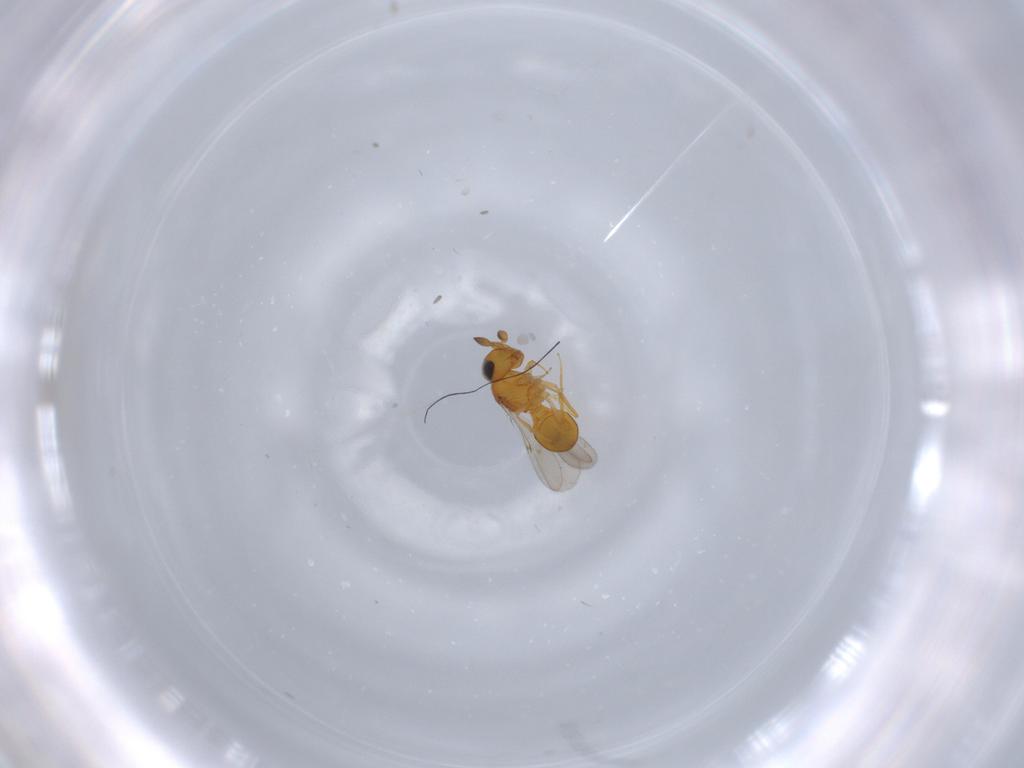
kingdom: Animalia
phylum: Arthropoda
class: Insecta
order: Hymenoptera
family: Scelionidae
